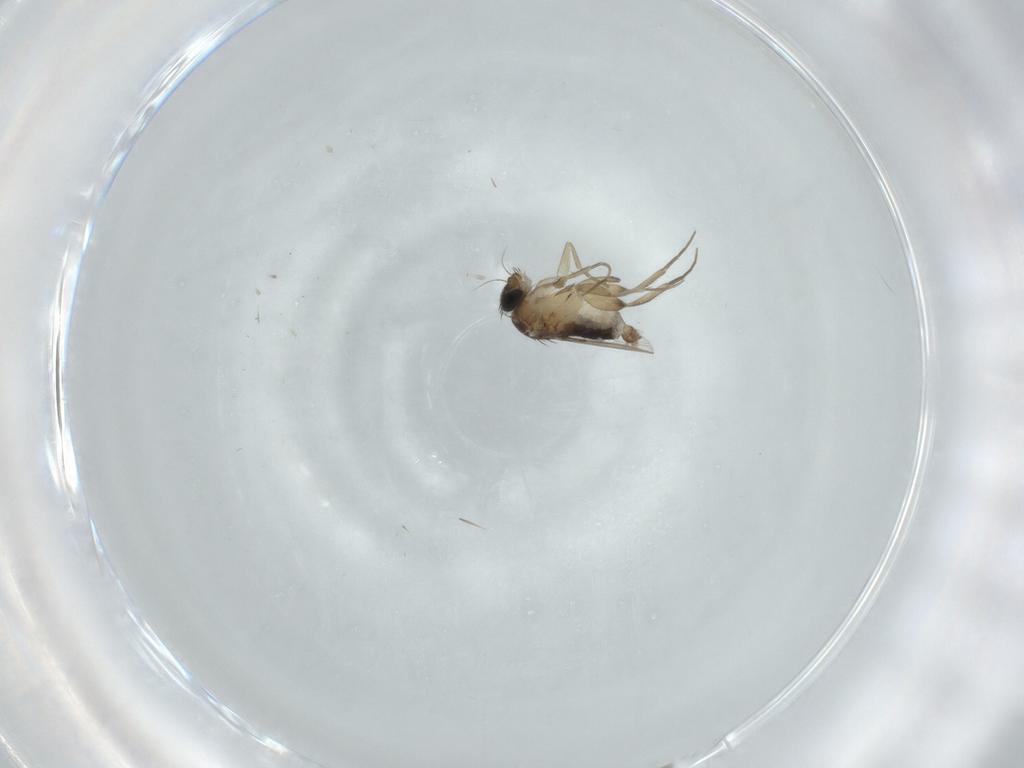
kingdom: Animalia
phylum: Arthropoda
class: Insecta
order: Diptera
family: Phoridae
